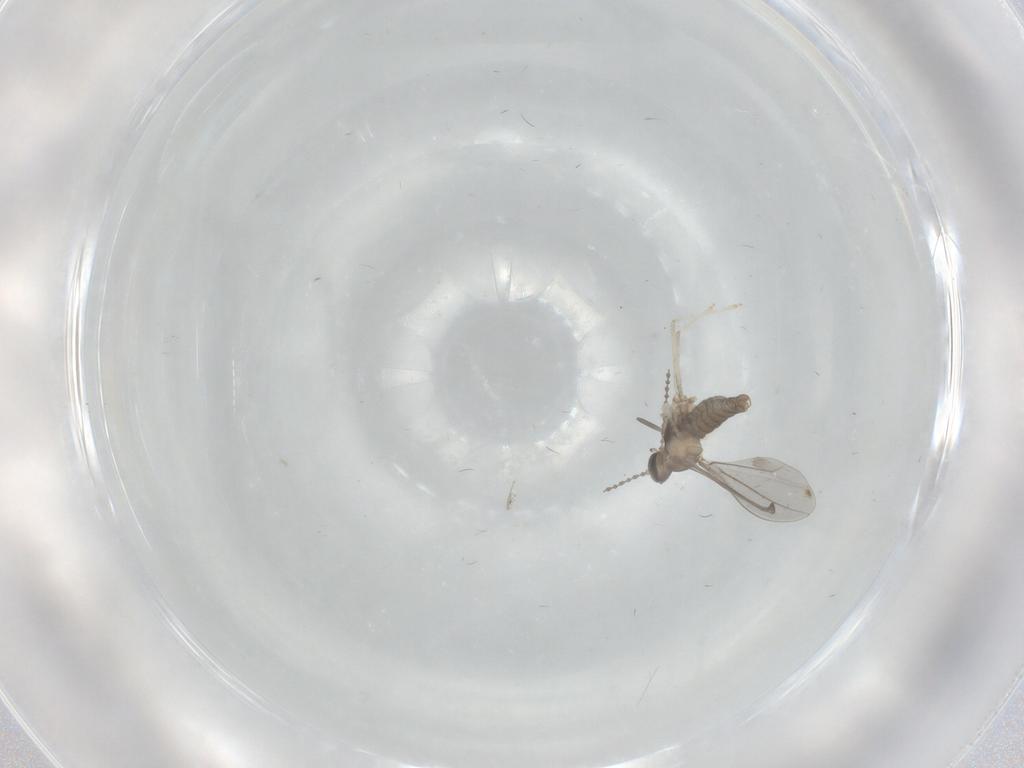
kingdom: Animalia
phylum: Arthropoda
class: Insecta
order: Diptera
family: Cecidomyiidae
